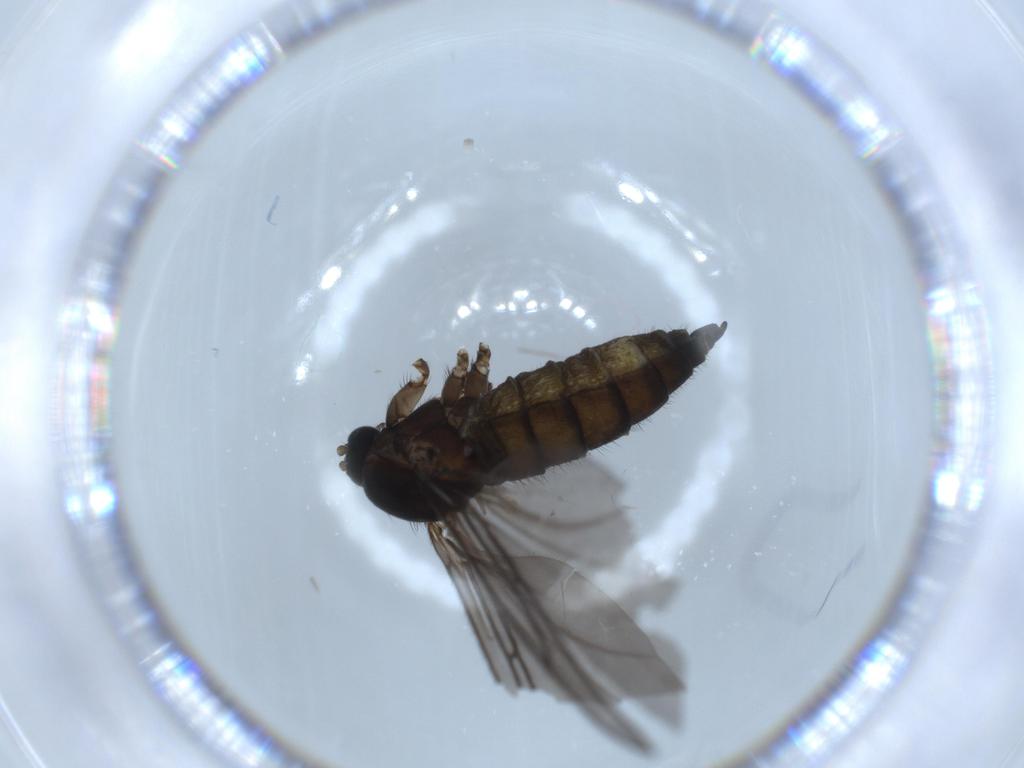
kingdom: Animalia
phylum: Arthropoda
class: Insecta
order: Diptera
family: Sciaridae
